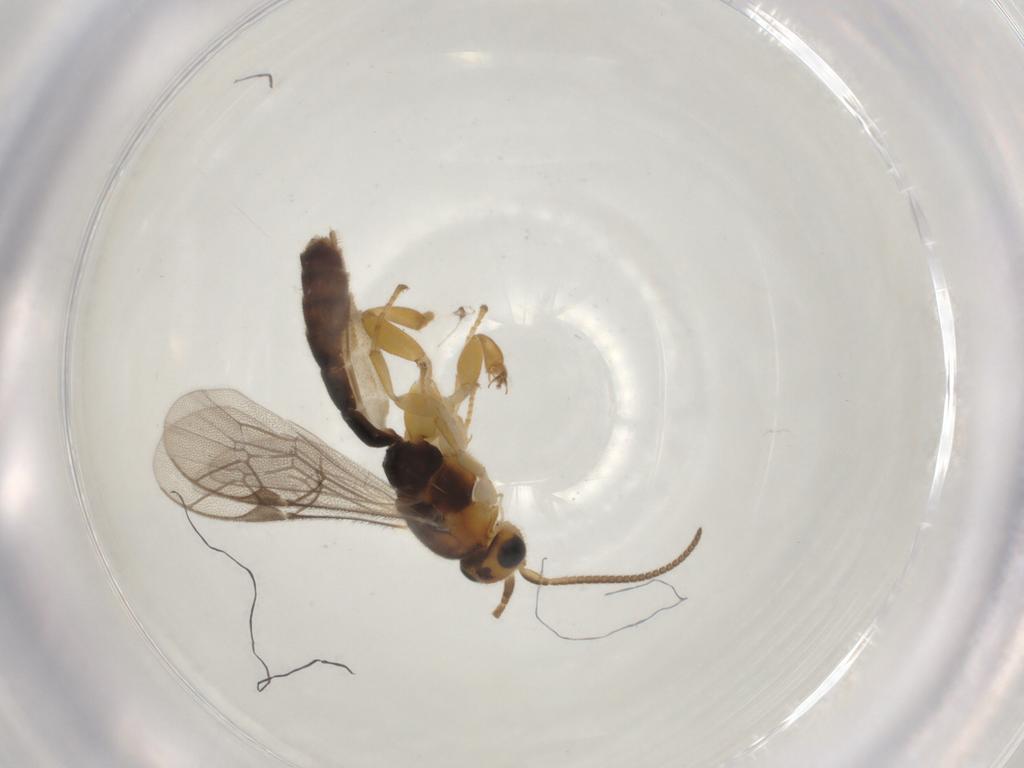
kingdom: Animalia
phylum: Arthropoda
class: Insecta
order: Hymenoptera
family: Ichneumonidae
